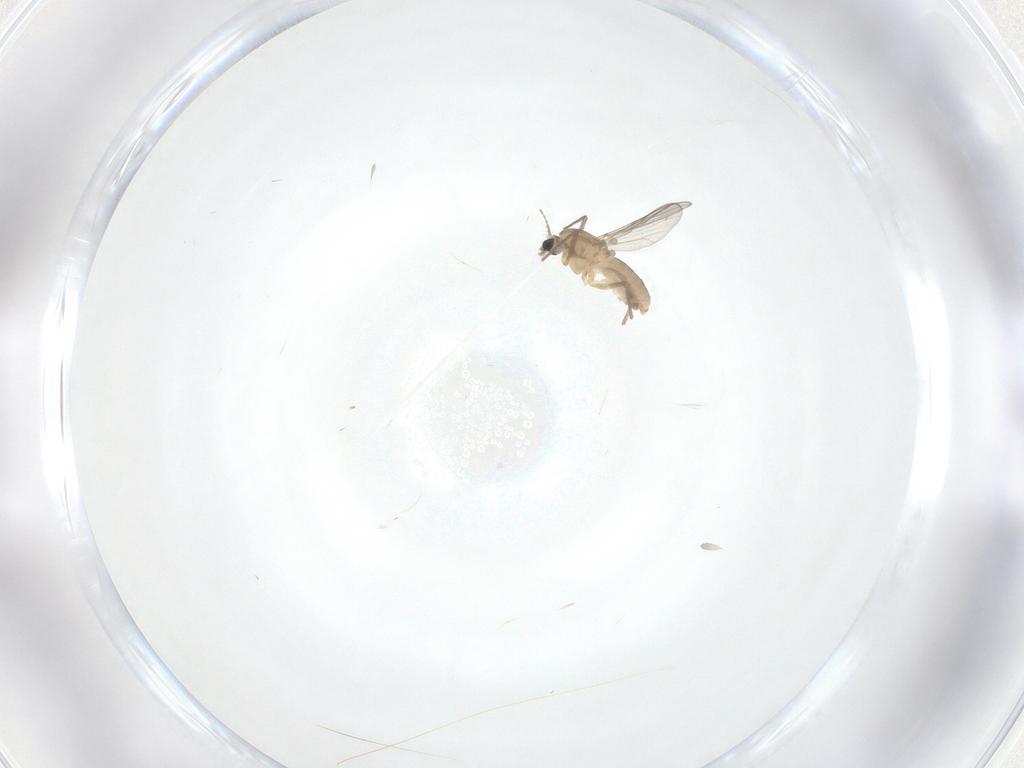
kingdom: Animalia
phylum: Arthropoda
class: Insecta
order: Diptera
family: Chironomidae
